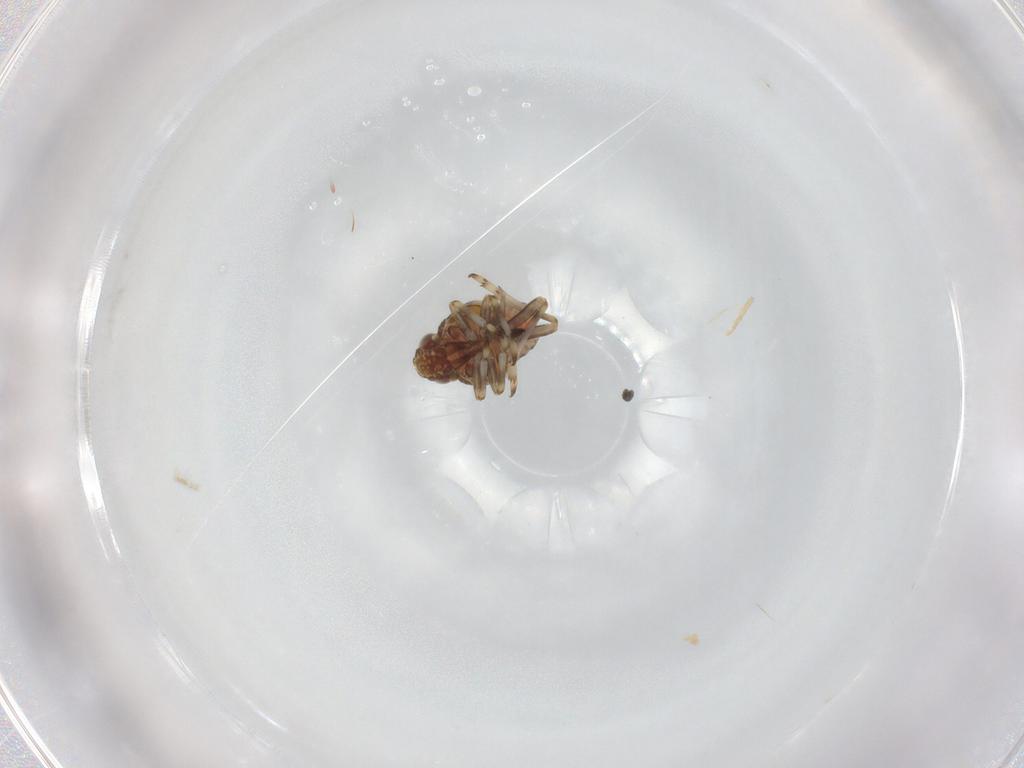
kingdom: Animalia
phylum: Arthropoda
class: Insecta
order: Hemiptera
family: Tropiduchidae
